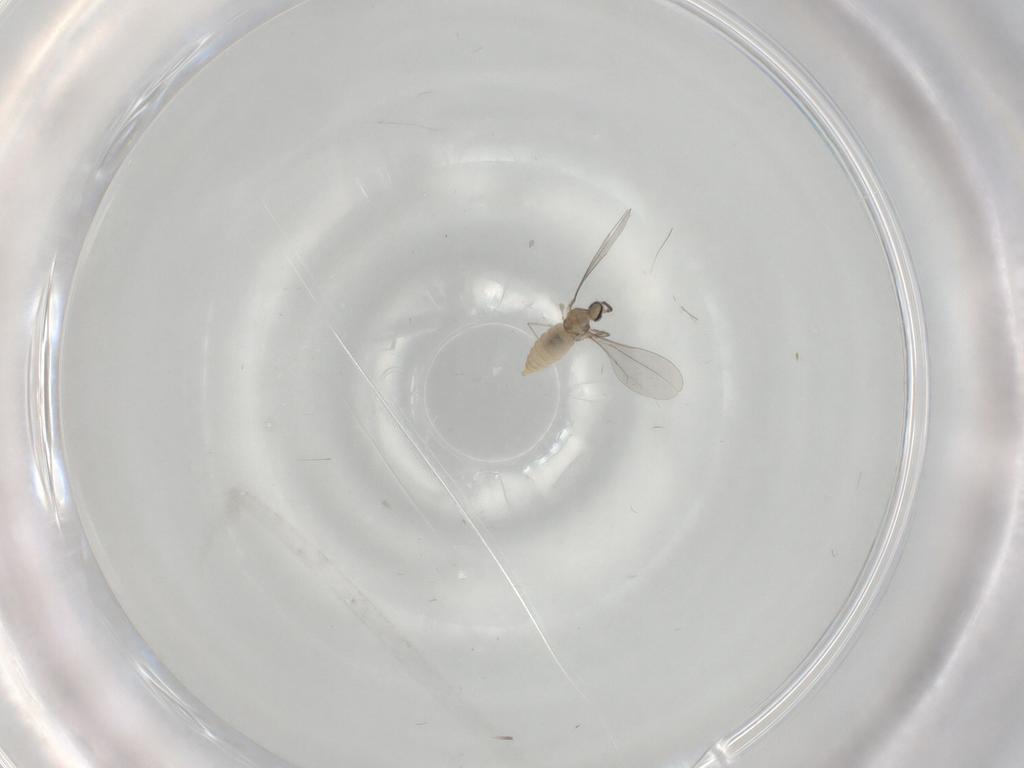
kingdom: Animalia
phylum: Arthropoda
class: Insecta
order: Diptera
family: Cecidomyiidae
